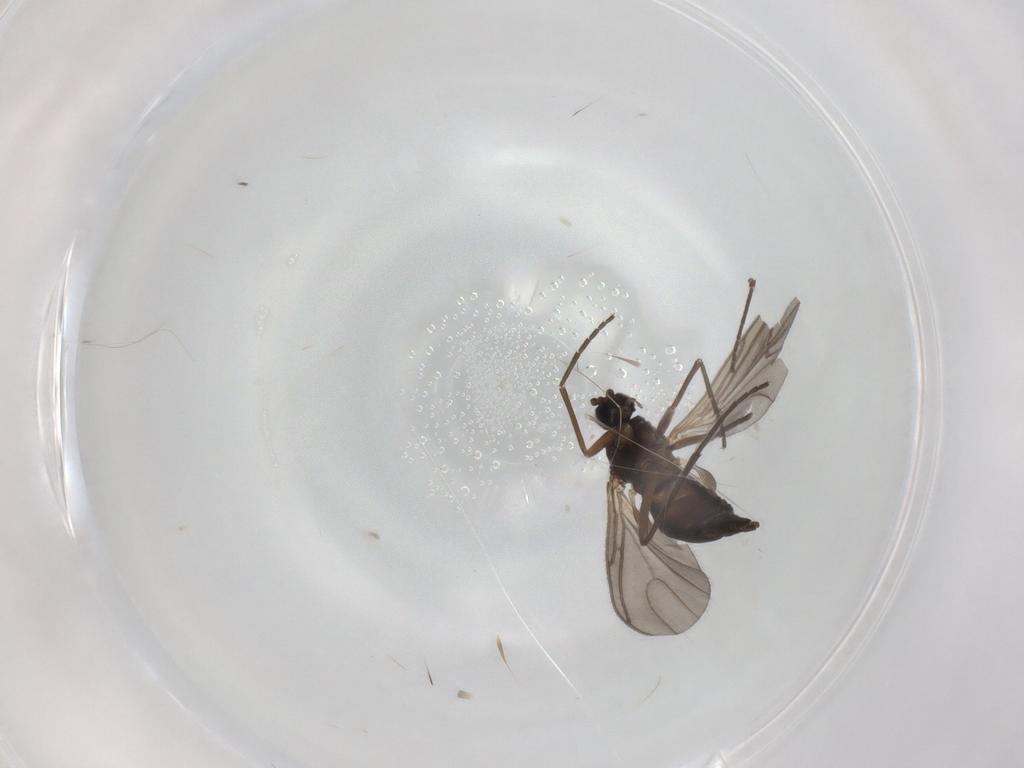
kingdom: Animalia
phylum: Arthropoda
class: Insecta
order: Diptera
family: Sciaridae
